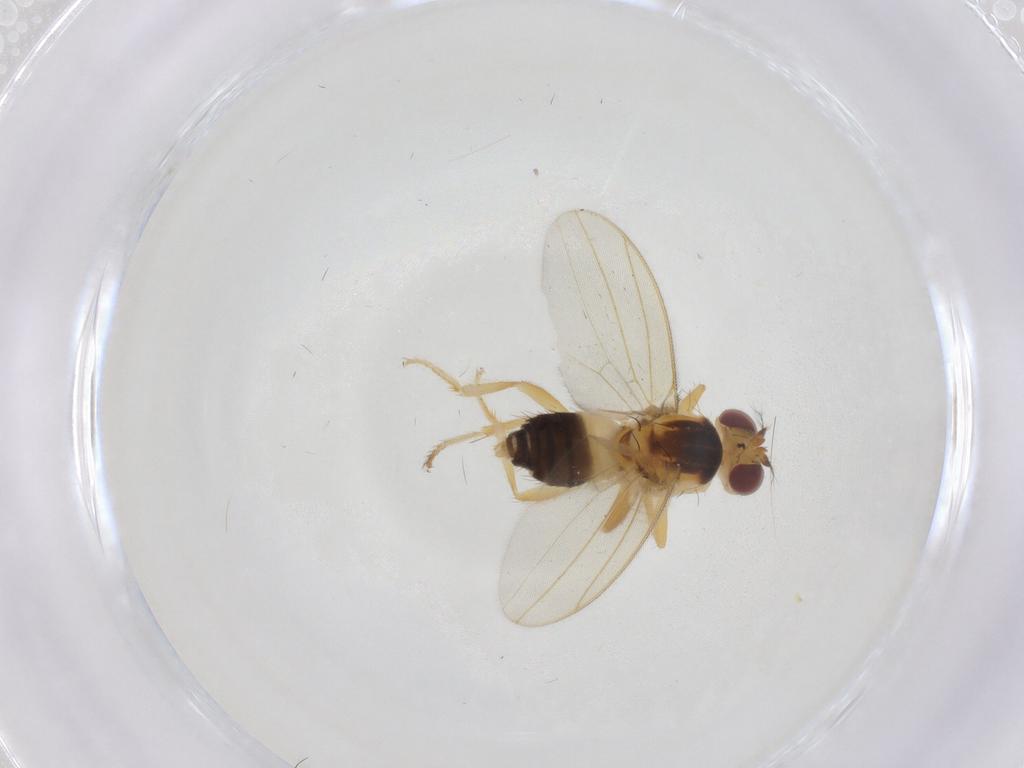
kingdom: Animalia
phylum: Arthropoda
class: Insecta
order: Diptera
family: Periscelididae
